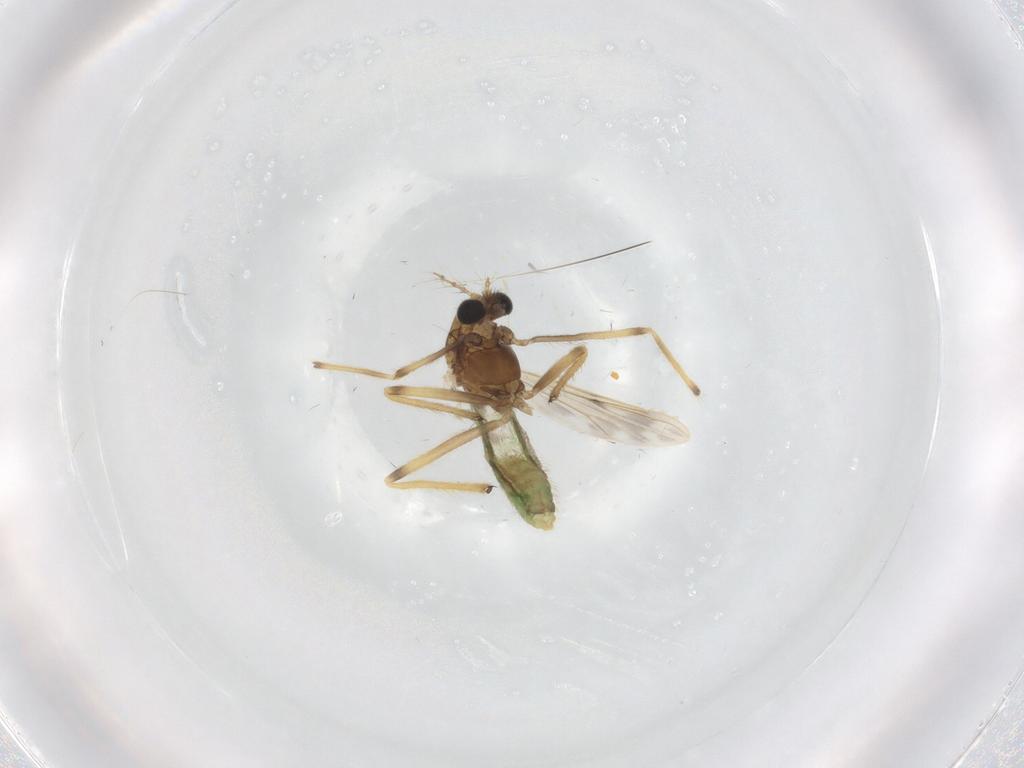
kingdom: Animalia
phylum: Arthropoda
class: Insecta
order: Diptera
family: Chironomidae
